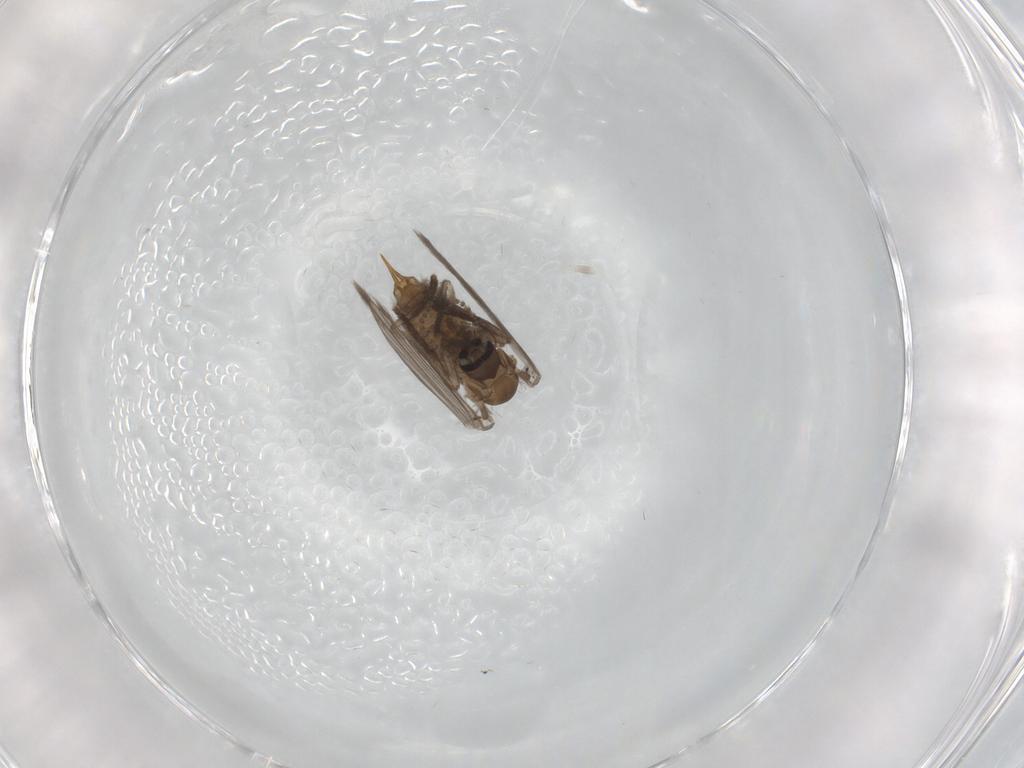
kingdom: Animalia
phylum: Arthropoda
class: Insecta
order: Diptera
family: Psychodidae
